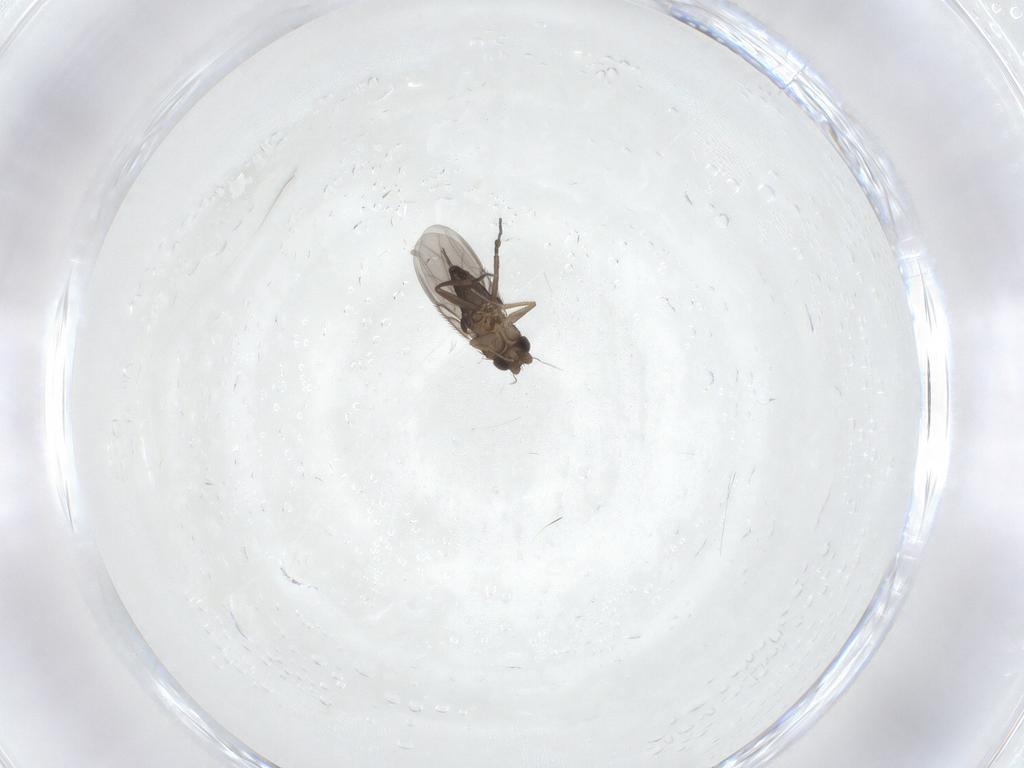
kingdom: Animalia
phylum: Arthropoda
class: Insecta
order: Diptera
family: Phoridae
